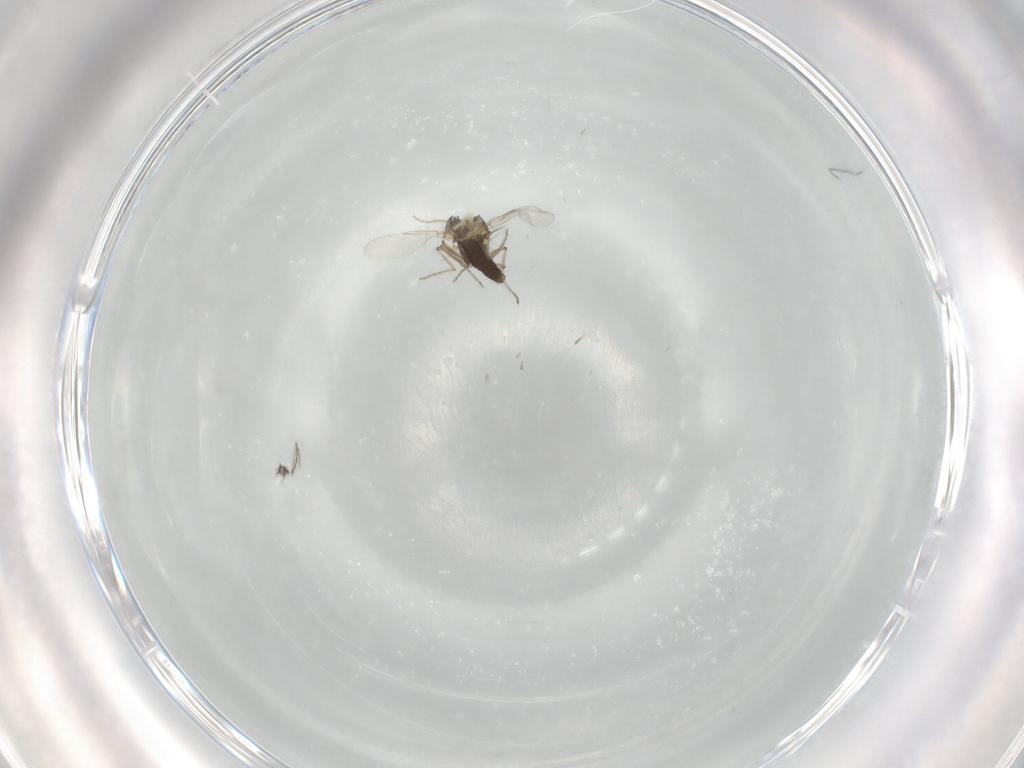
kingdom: Animalia
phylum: Arthropoda
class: Insecta
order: Diptera
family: Ceratopogonidae
